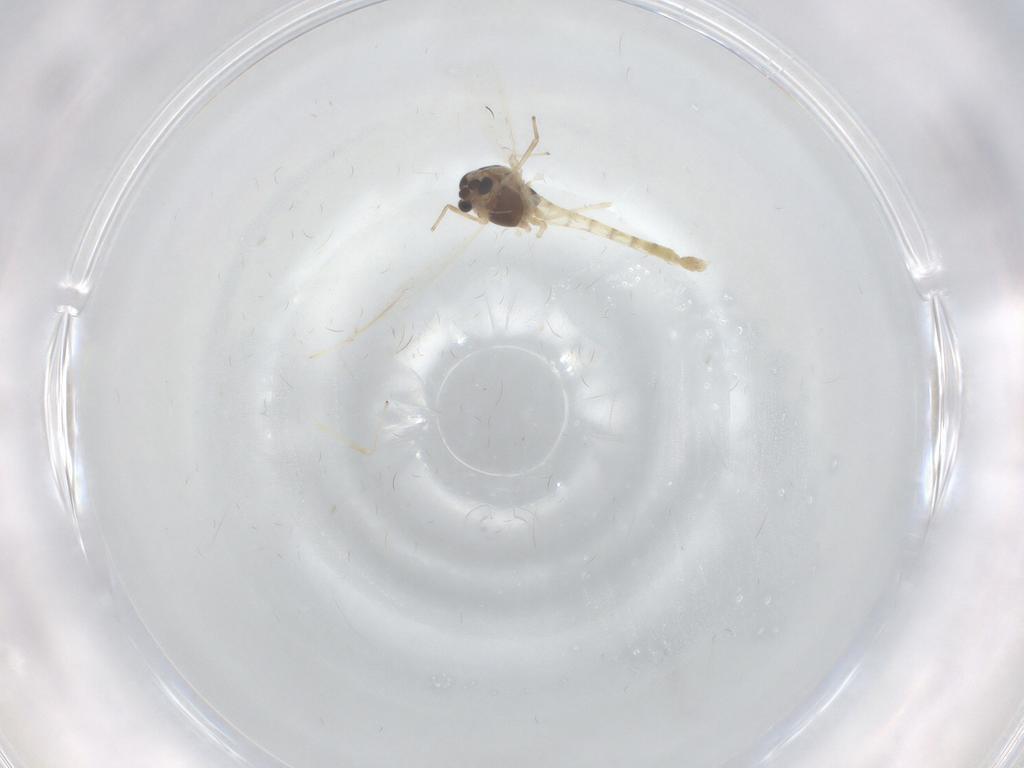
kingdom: Animalia
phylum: Arthropoda
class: Insecta
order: Diptera
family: Chironomidae
